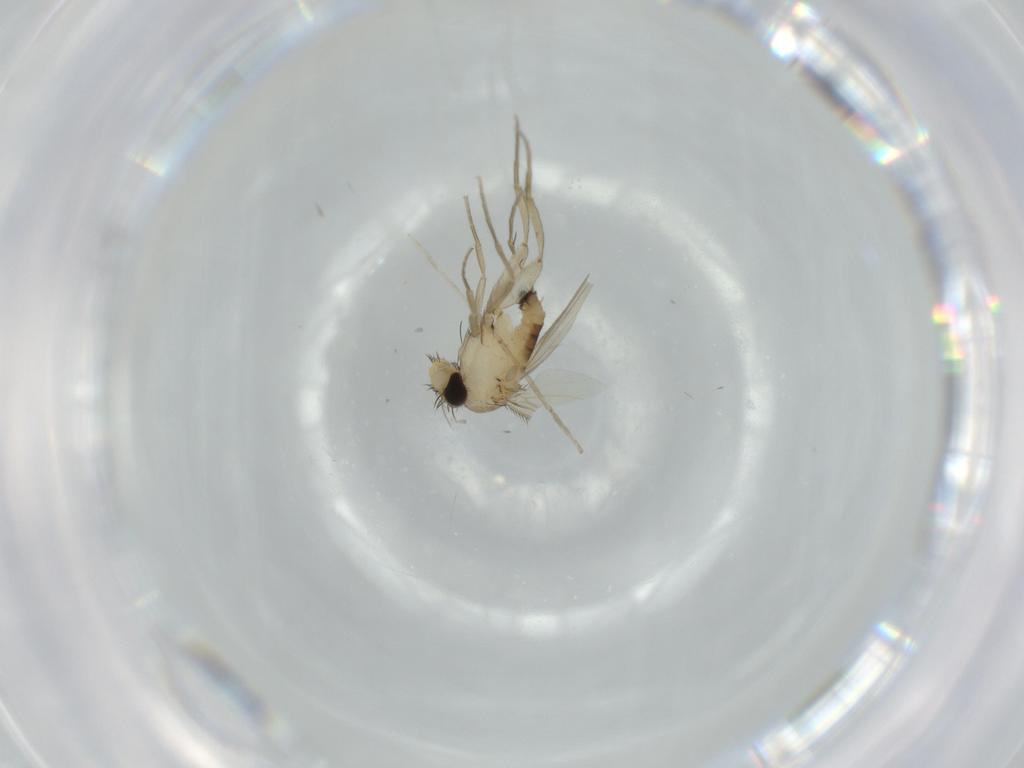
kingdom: Animalia
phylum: Arthropoda
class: Insecta
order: Diptera
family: Phoridae
